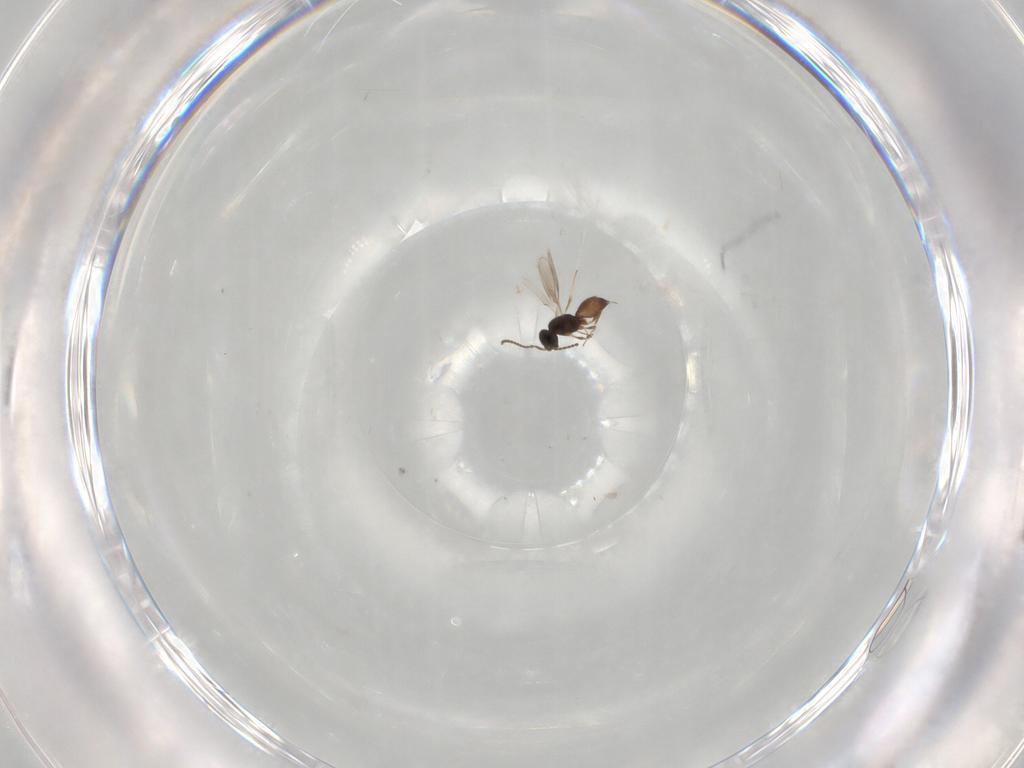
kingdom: Animalia
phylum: Arthropoda
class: Insecta
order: Hymenoptera
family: Scelionidae
